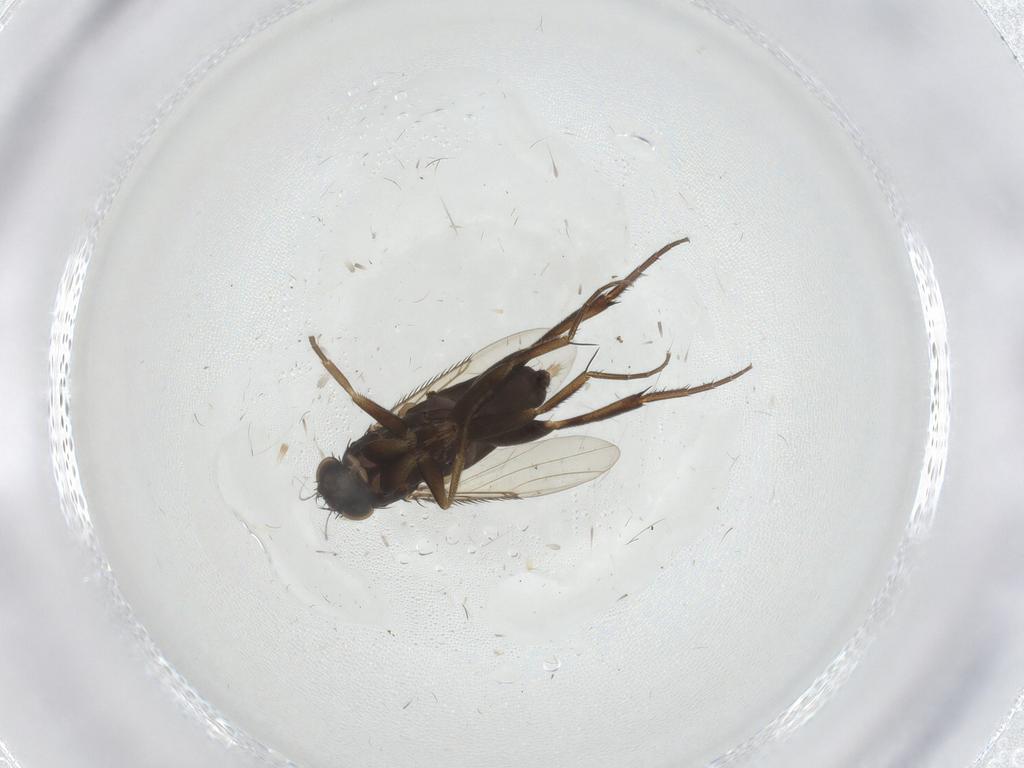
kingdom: Animalia
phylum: Arthropoda
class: Insecta
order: Diptera
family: Phoridae
